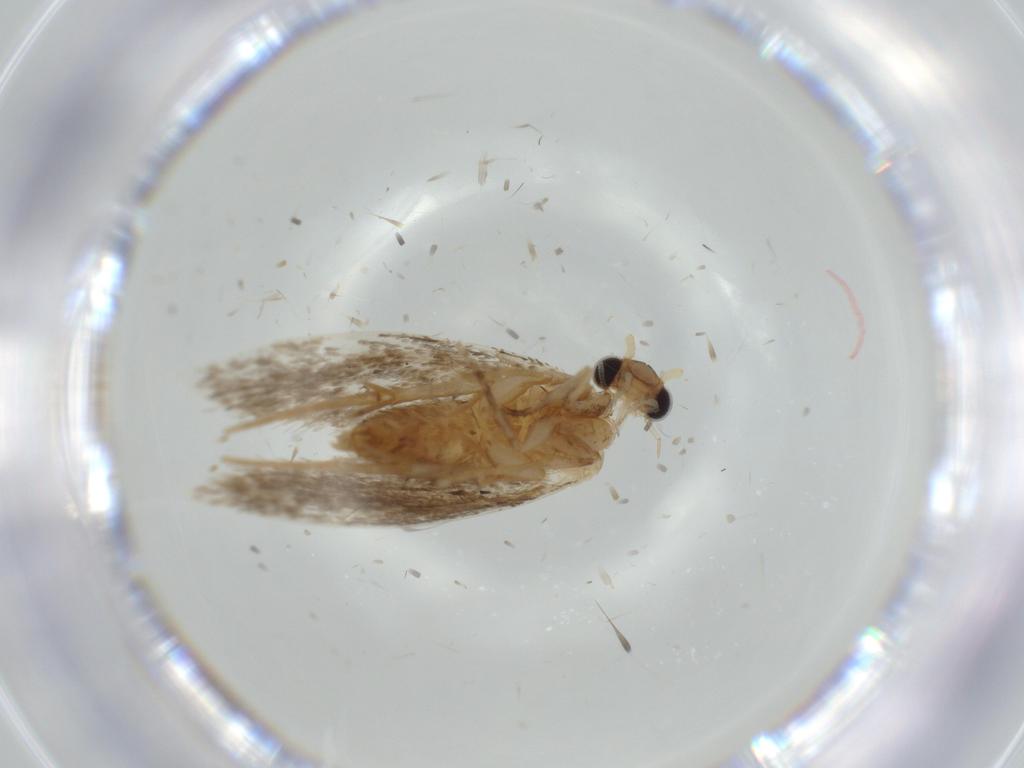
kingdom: Animalia
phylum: Arthropoda
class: Insecta
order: Lepidoptera
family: Tineidae
